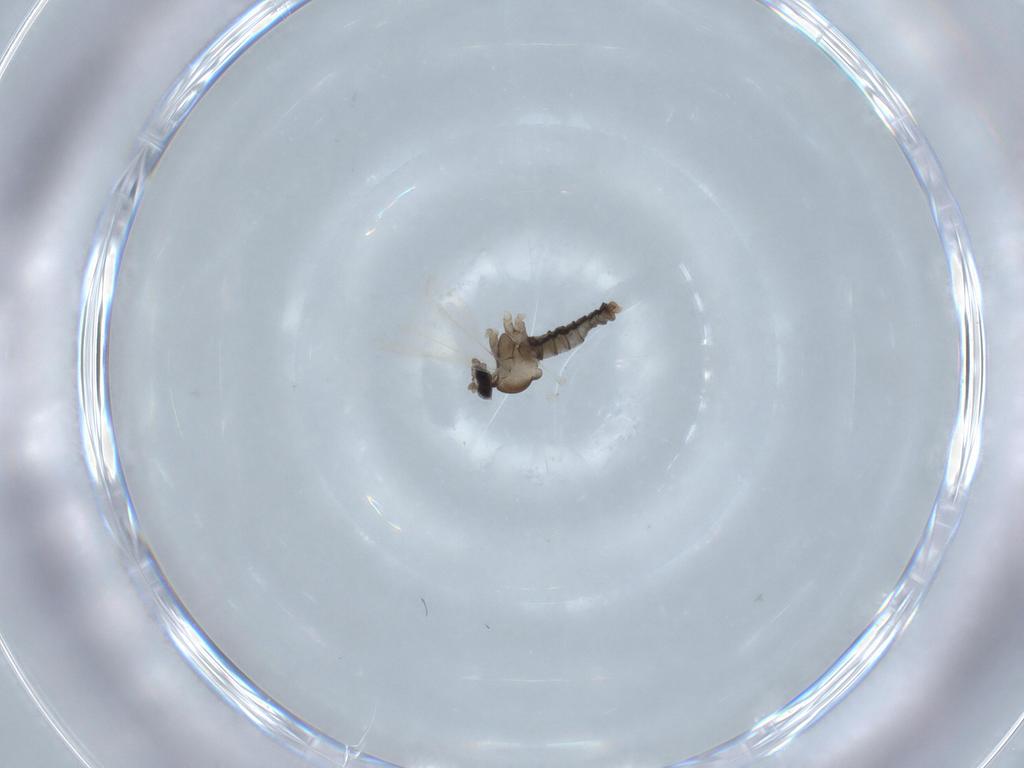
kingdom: Animalia
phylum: Arthropoda
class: Insecta
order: Diptera
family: Cecidomyiidae
